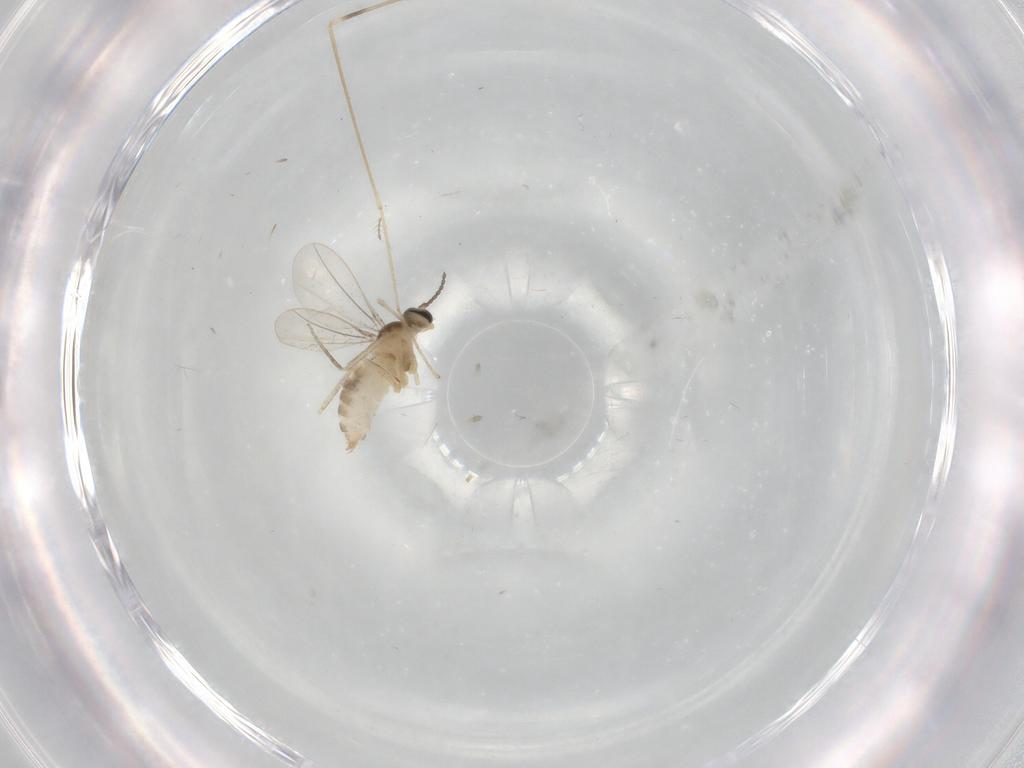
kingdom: Animalia
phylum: Arthropoda
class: Insecta
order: Diptera
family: Cecidomyiidae
